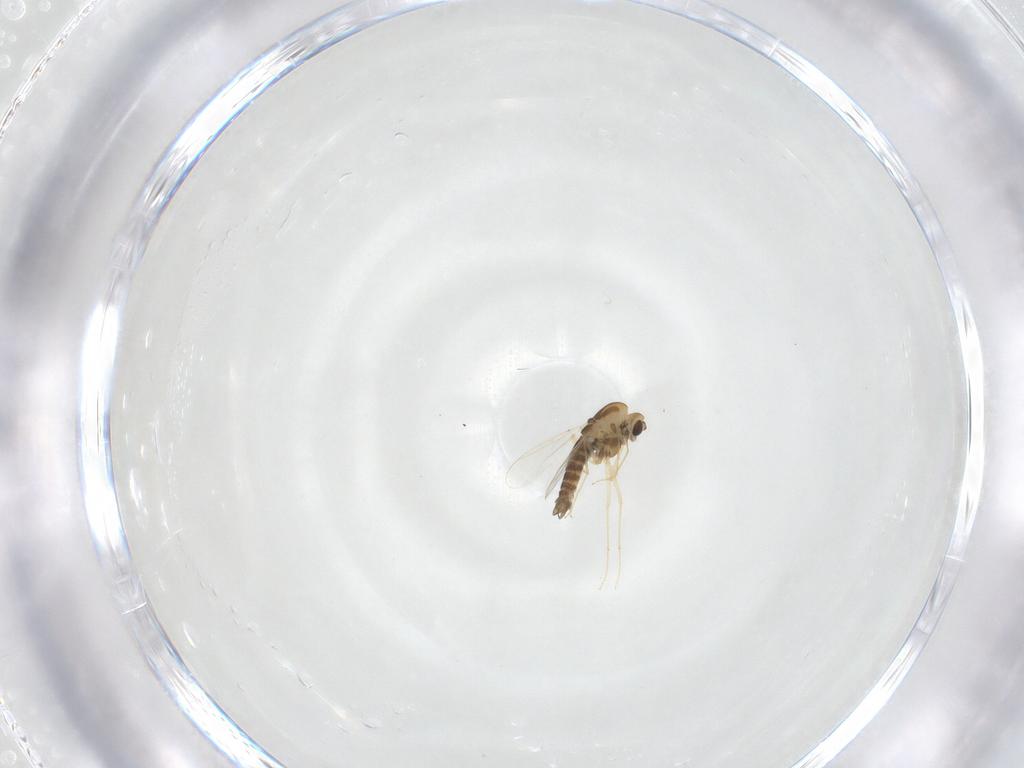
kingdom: Animalia
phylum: Arthropoda
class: Insecta
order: Diptera
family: Chironomidae
